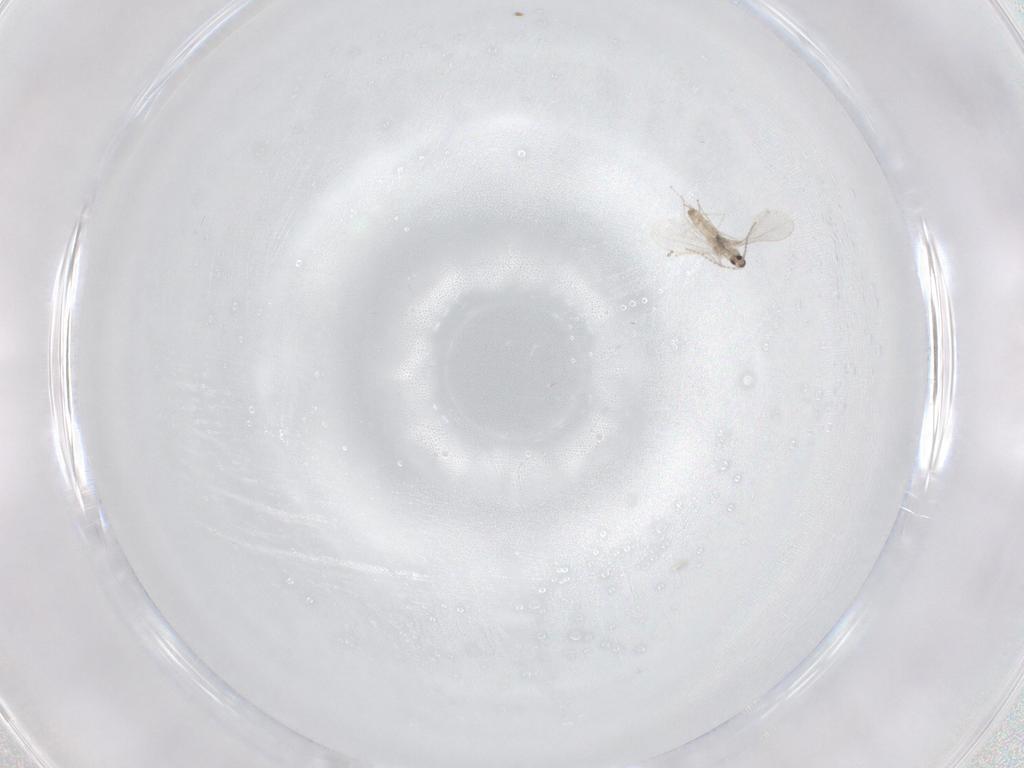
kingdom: Animalia
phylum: Arthropoda
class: Insecta
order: Diptera
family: Cecidomyiidae
